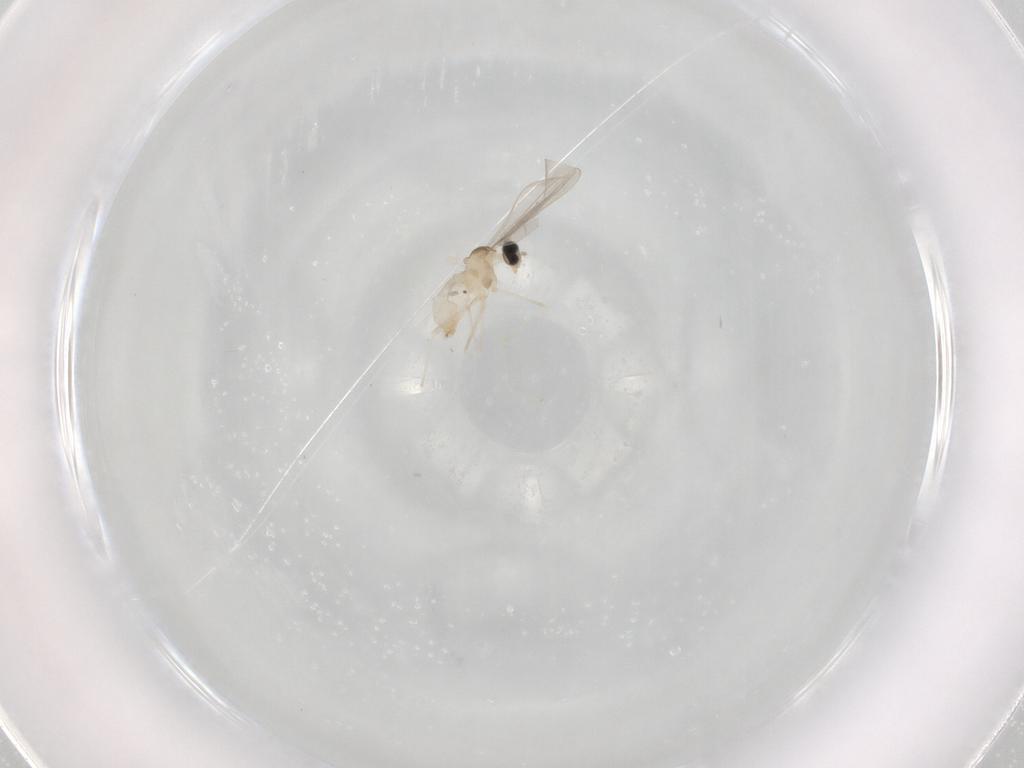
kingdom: Animalia
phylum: Arthropoda
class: Insecta
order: Diptera
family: Cecidomyiidae
